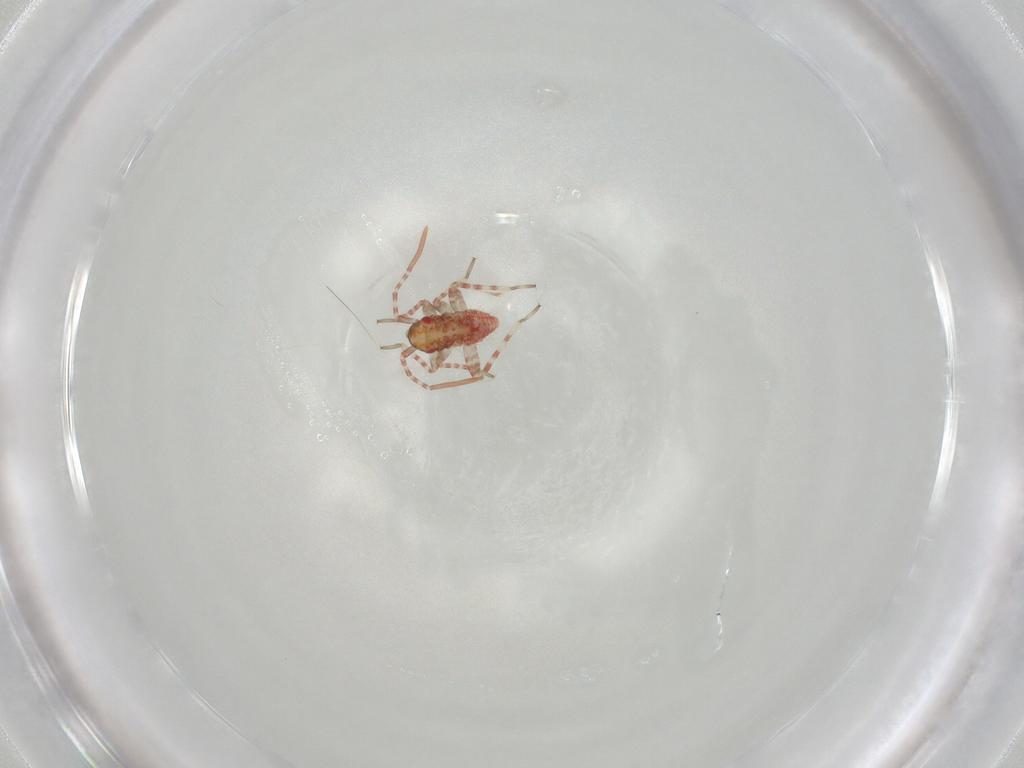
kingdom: Animalia
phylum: Arthropoda
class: Insecta
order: Hemiptera
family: Miridae
